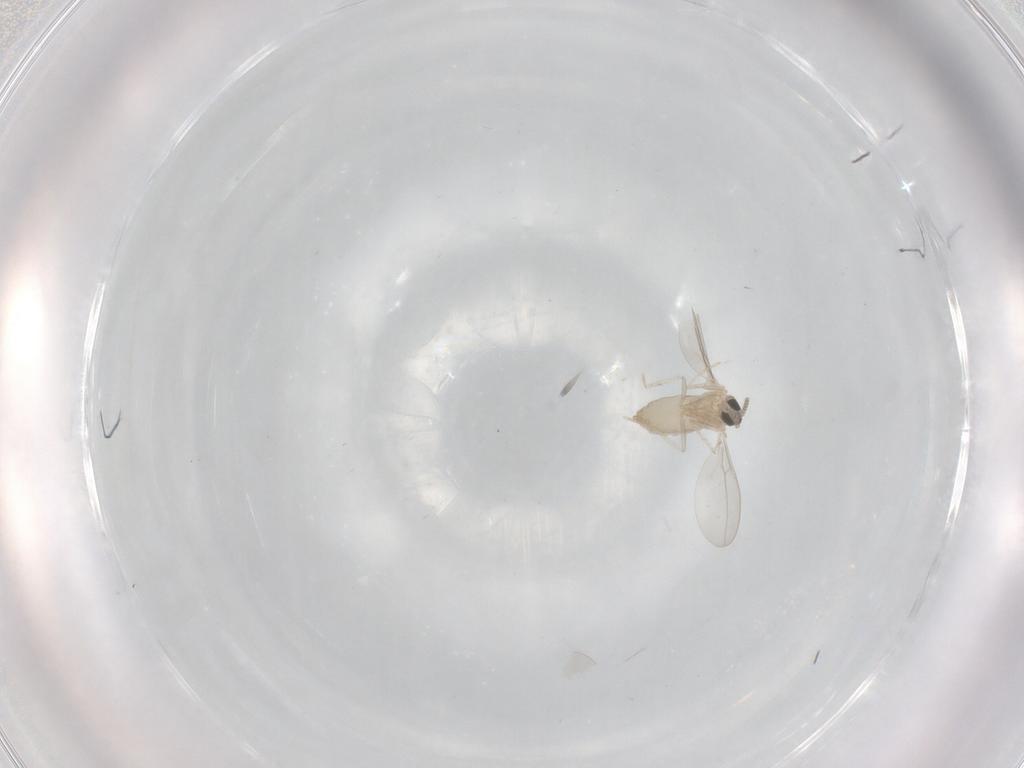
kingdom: Animalia
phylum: Arthropoda
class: Insecta
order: Diptera
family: Cecidomyiidae
